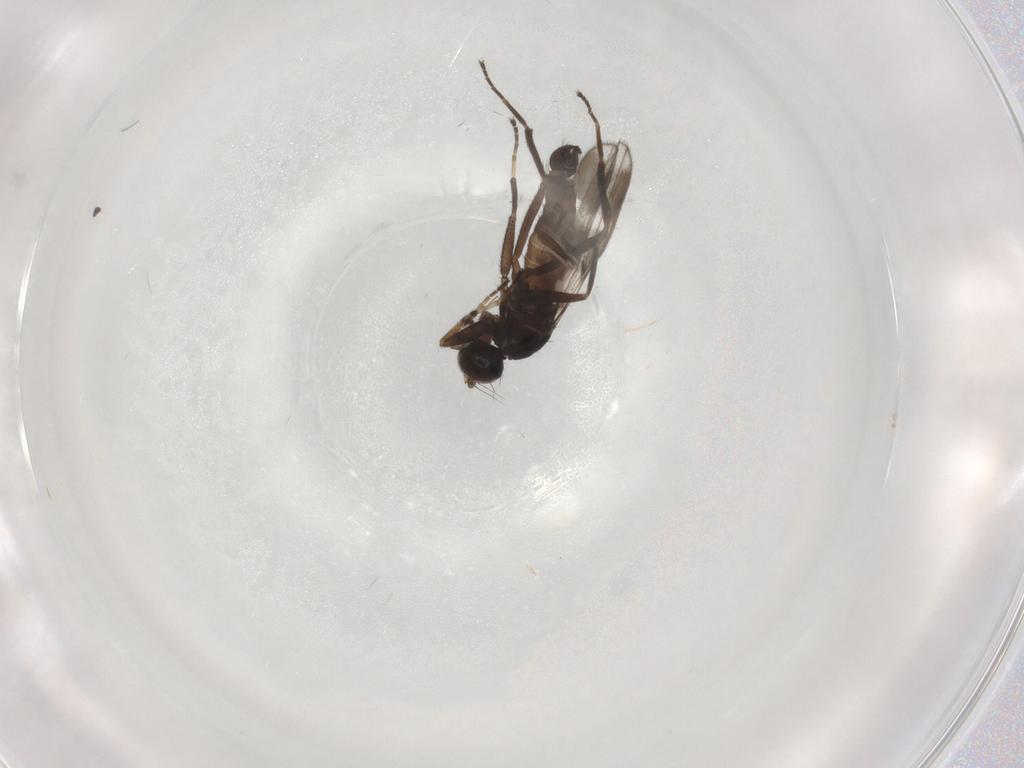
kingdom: Animalia
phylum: Arthropoda
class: Insecta
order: Diptera
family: Hybotidae
